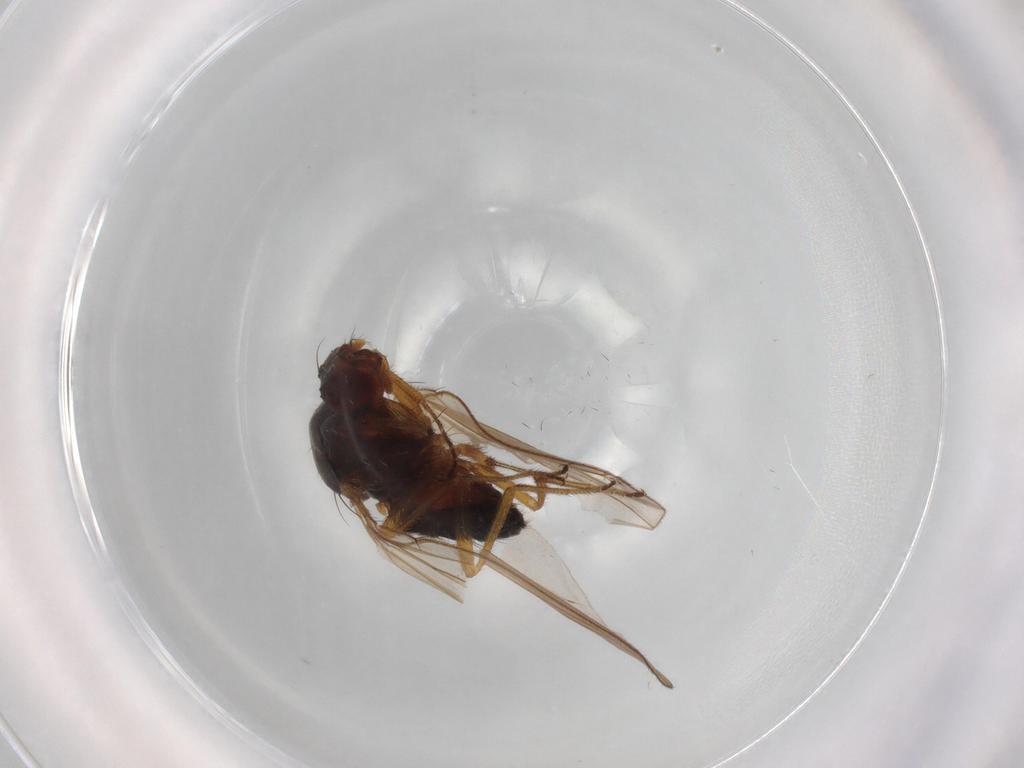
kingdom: Animalia
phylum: Arthropoda
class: Insecta
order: Diptera
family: Drosophilidae
